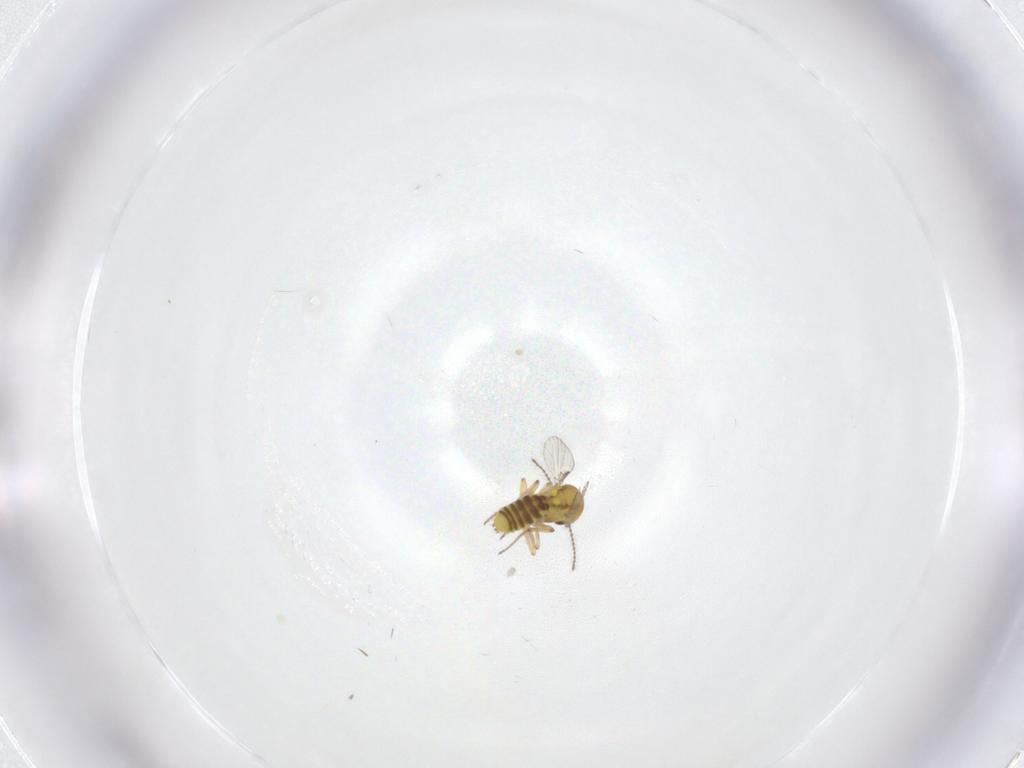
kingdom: Animalia
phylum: Arthropoda
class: Insecta
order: Diptera
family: Ceratopogonidae
